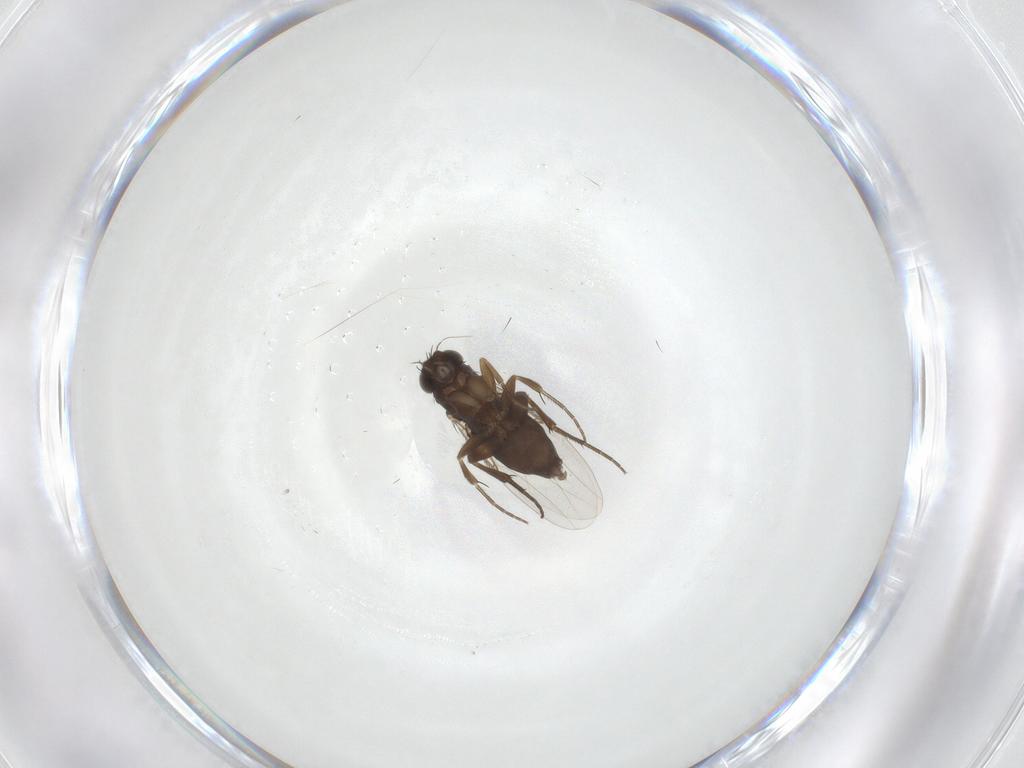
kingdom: Animalia
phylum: Arthropoda
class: Insecta
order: Diptera
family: Phoridae
